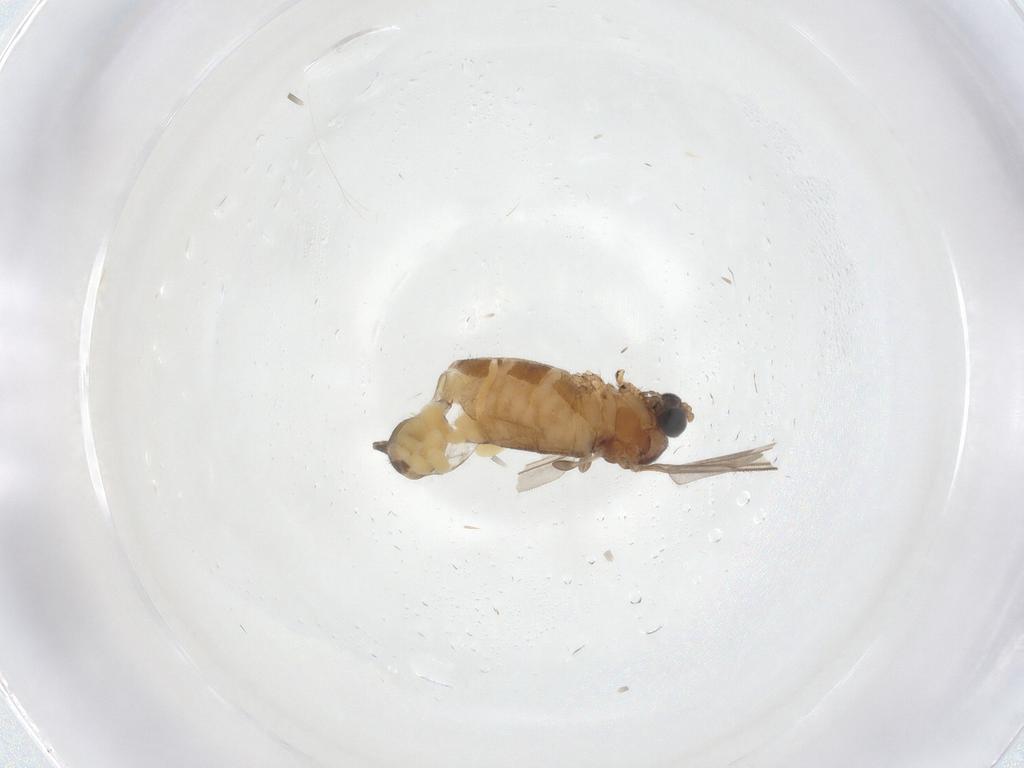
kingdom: Animalia
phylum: Arthropoda
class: Insecta
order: Diptera
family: Sciaridae
